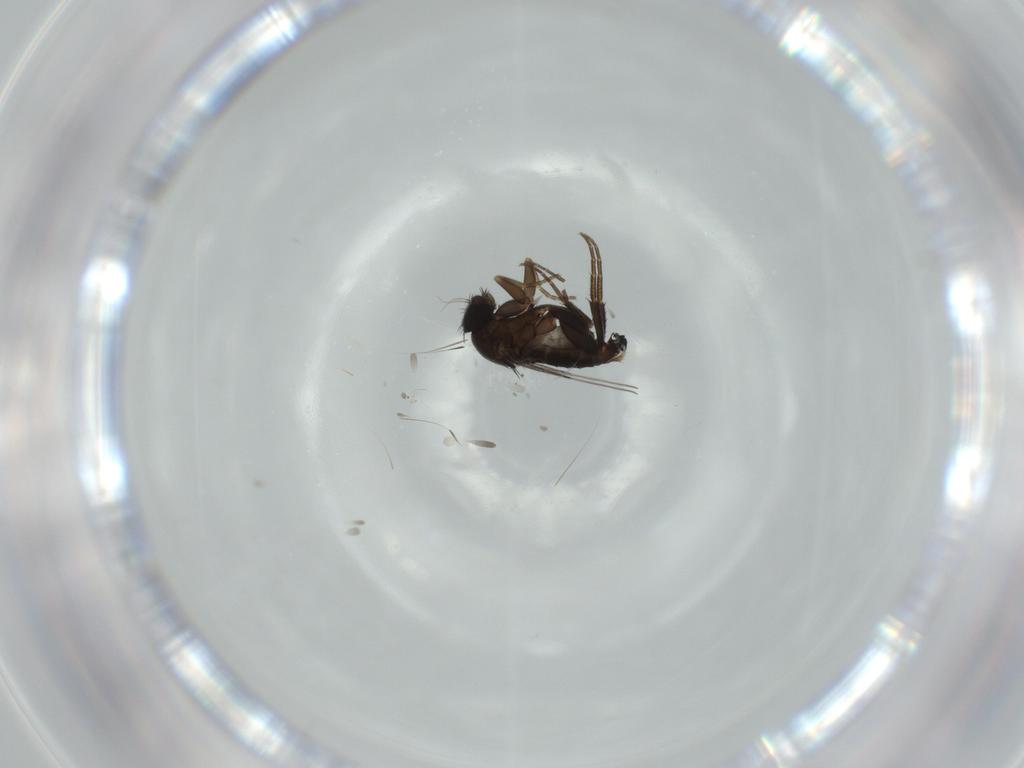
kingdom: Animalia
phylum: Arthropoda
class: Insecta
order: Diptera
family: Phoridae
